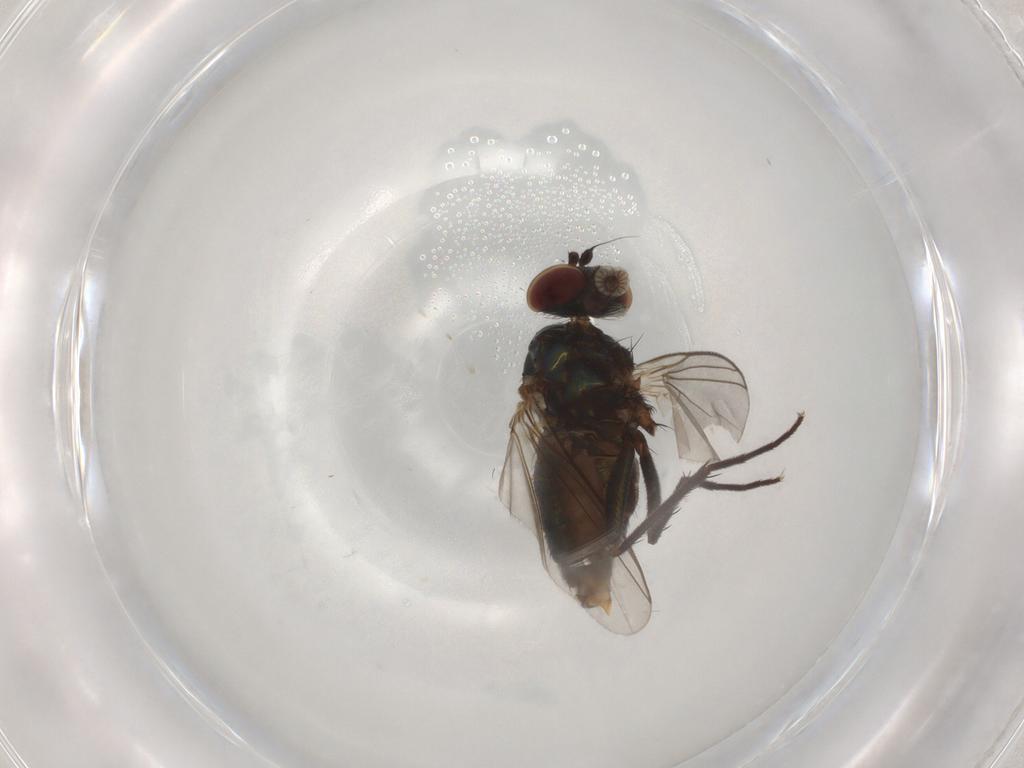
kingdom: Animalia
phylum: Arthropoda
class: Insecta
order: Diptera
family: Dolichopodidae
